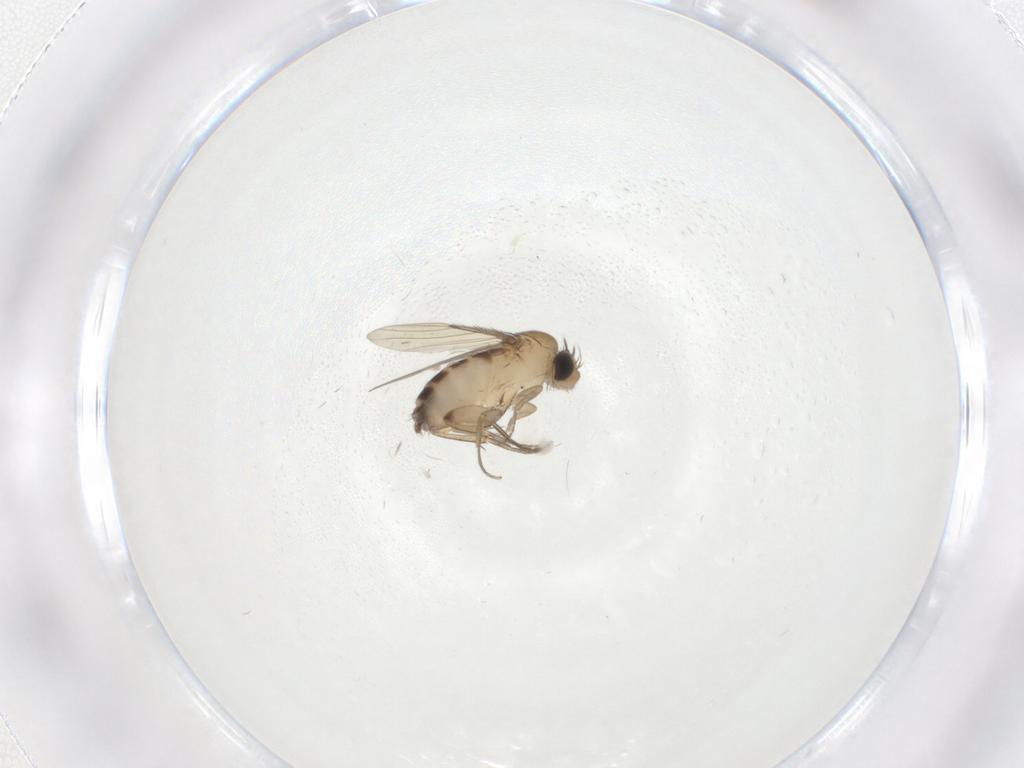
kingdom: Animalia
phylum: Arthropoda
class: Insecta
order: Diptera
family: Phoridae
